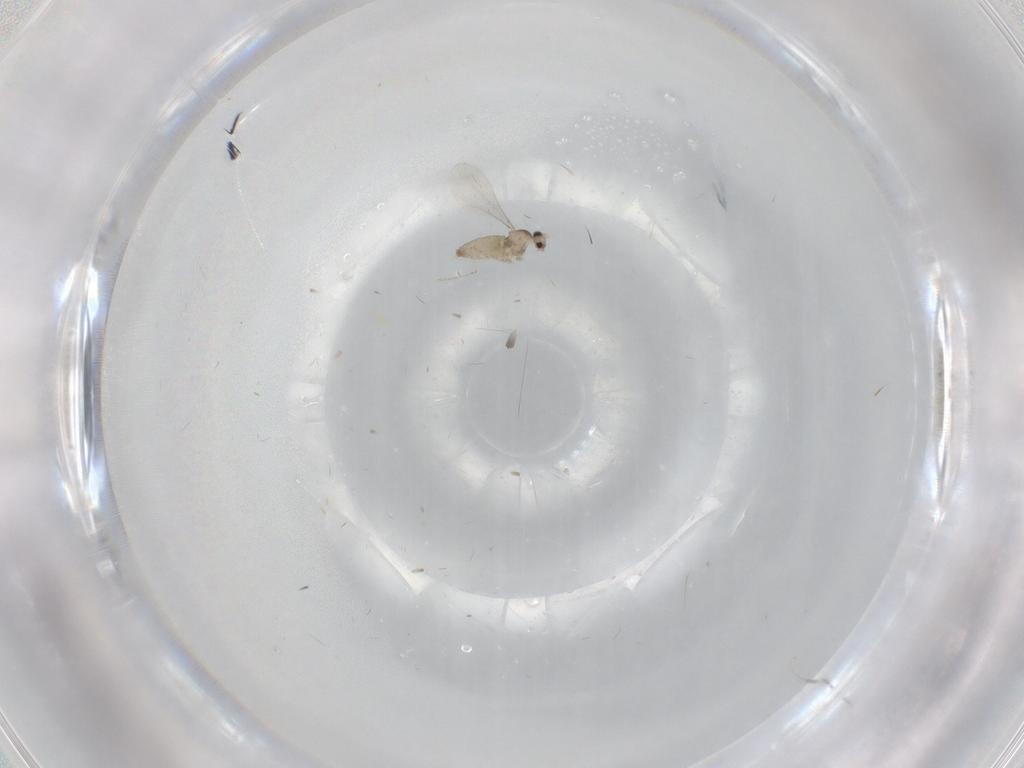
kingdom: Animalia
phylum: Arthropoda
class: Insecta
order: Diptera
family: Cecidomyiidae
